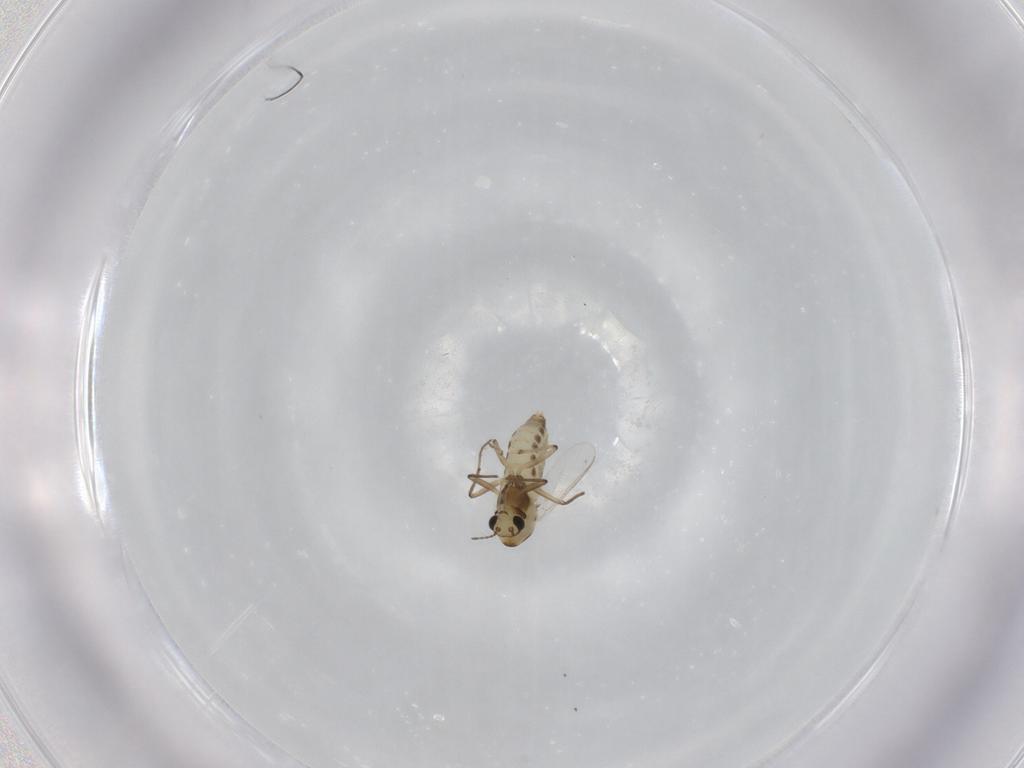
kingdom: Animalia
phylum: Arthropoda
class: Insecta
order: Diptera
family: Chironomidae
